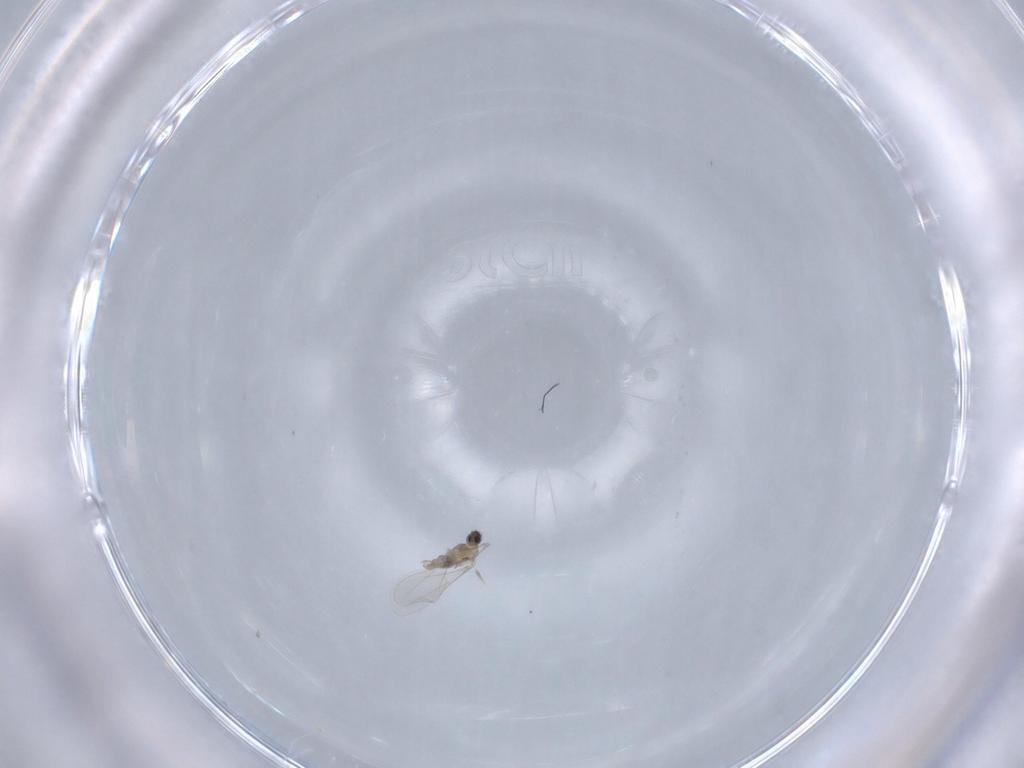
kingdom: Animalia
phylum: Arthropoda
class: Insecta
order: Diptera
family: Cecidomyiidae
